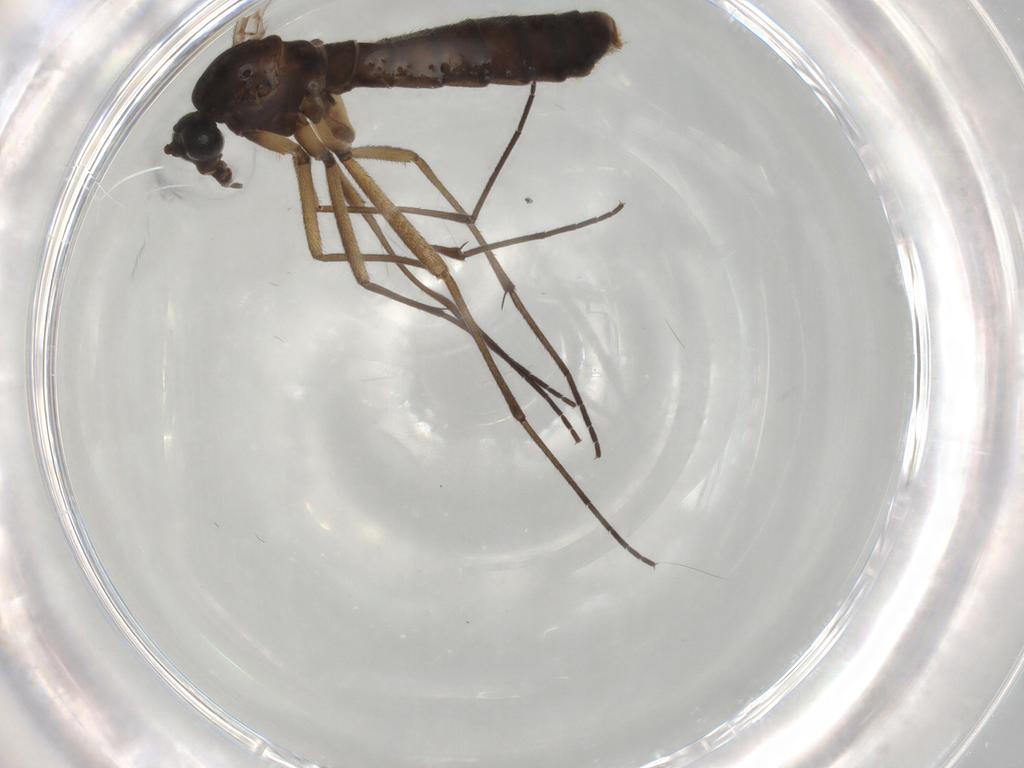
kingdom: Animalia
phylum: Arthropoda
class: Insecta
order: Diptera
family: Cecidomyiidae
